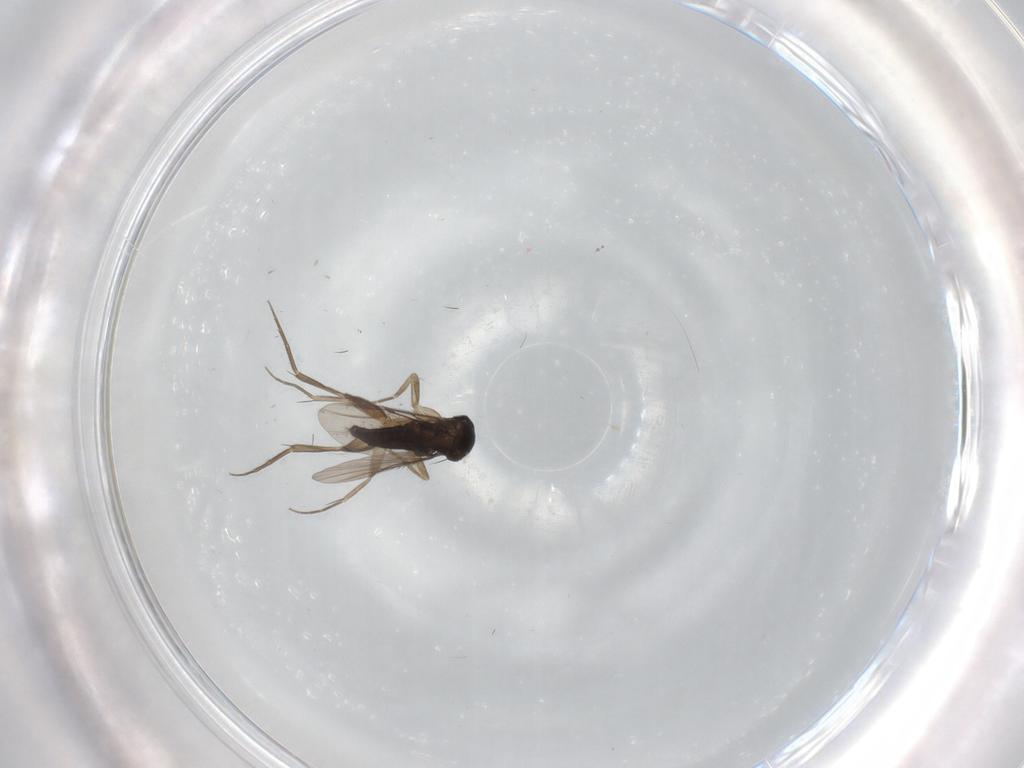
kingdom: Animalia
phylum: Arthropoda
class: Insecta
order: Diptera
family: Phoridae
